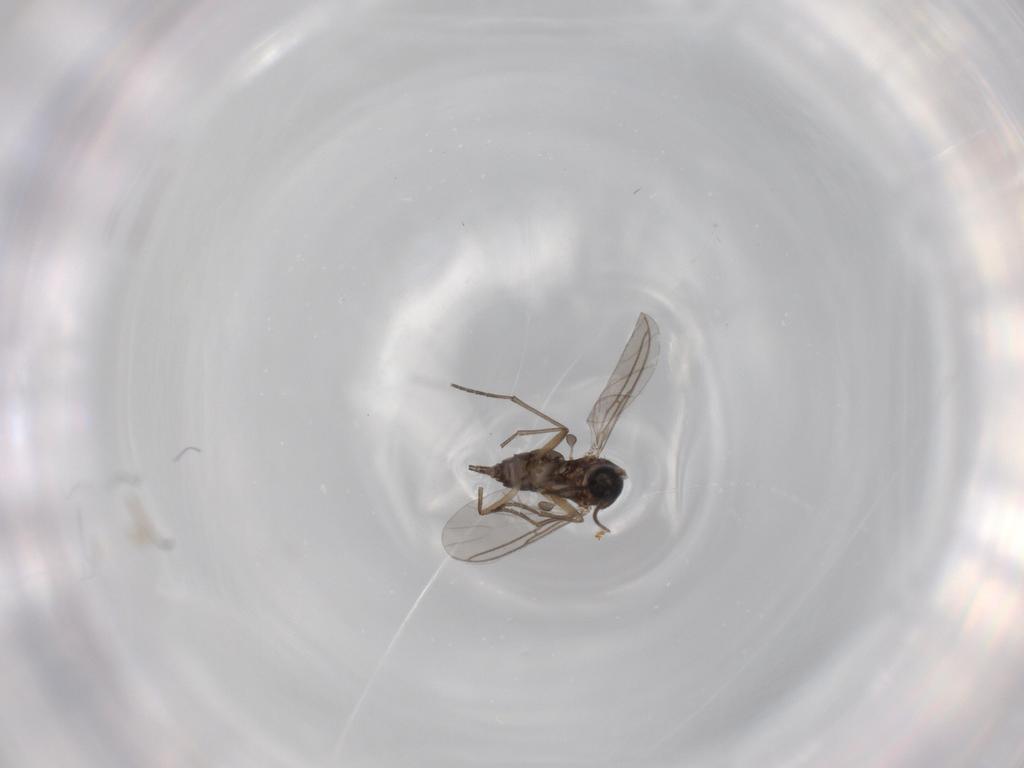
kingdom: Animalia
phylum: Arthropoda
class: Insecta
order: Diptera
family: Sciaridae
